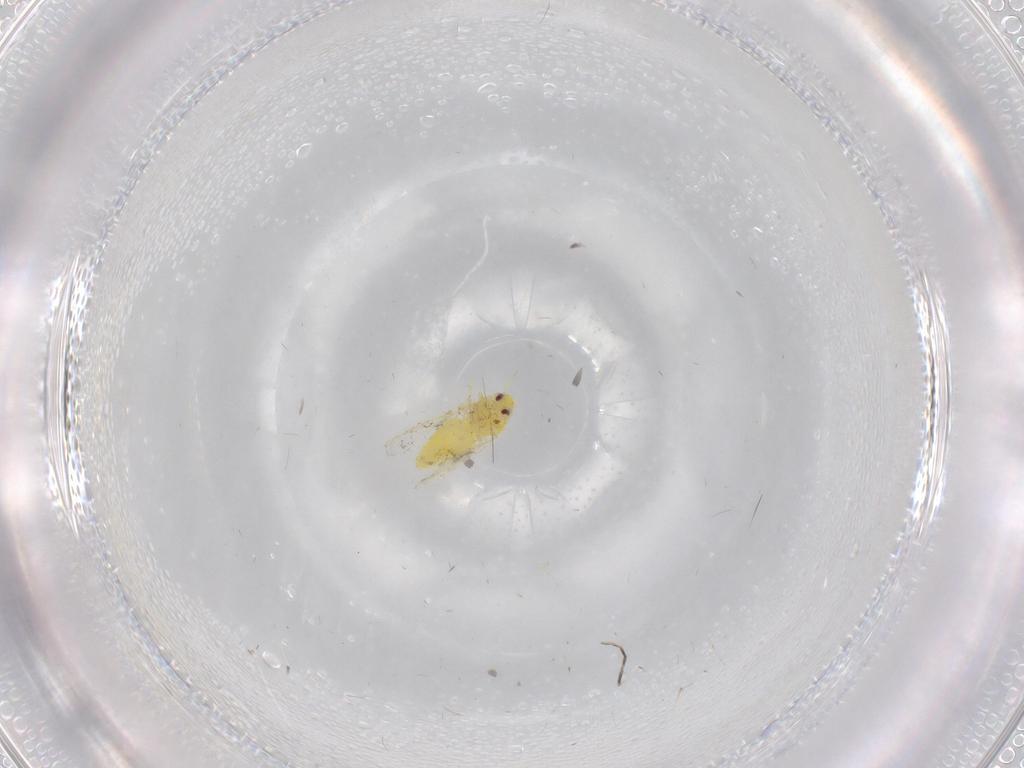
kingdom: Animalia
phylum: Arthropoda
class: Insecta
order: Hemiptera
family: Aleyrodidae
